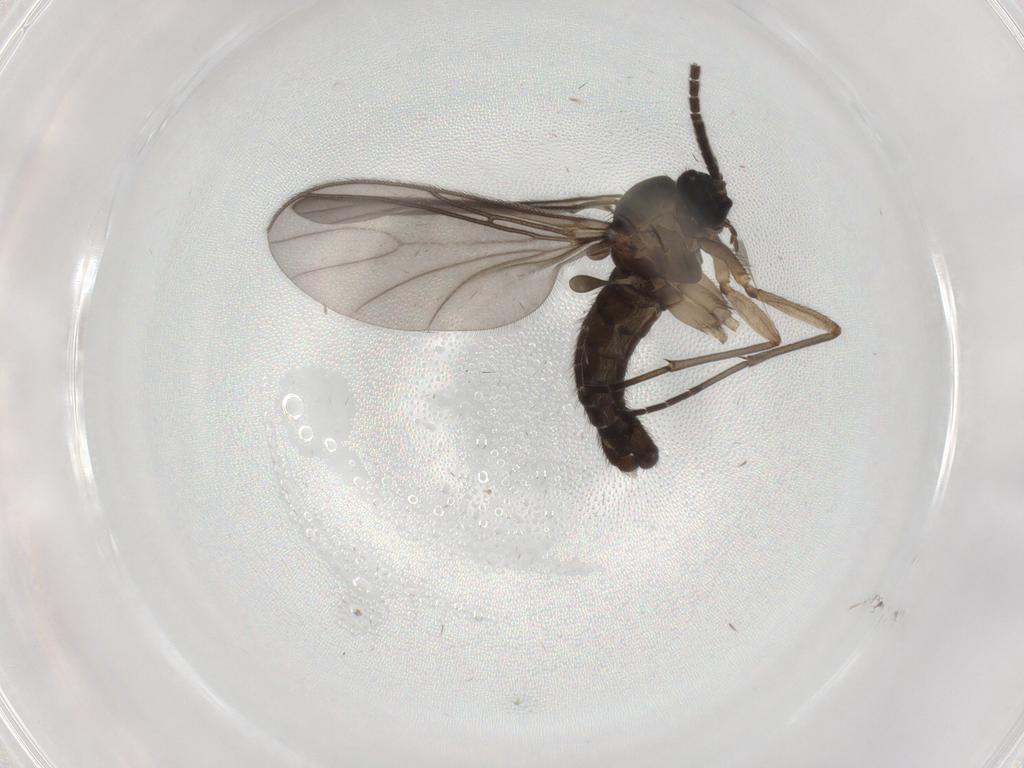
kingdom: Animalia
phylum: Arthropoda
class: Insecta
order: Diptera
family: Sciaridae
